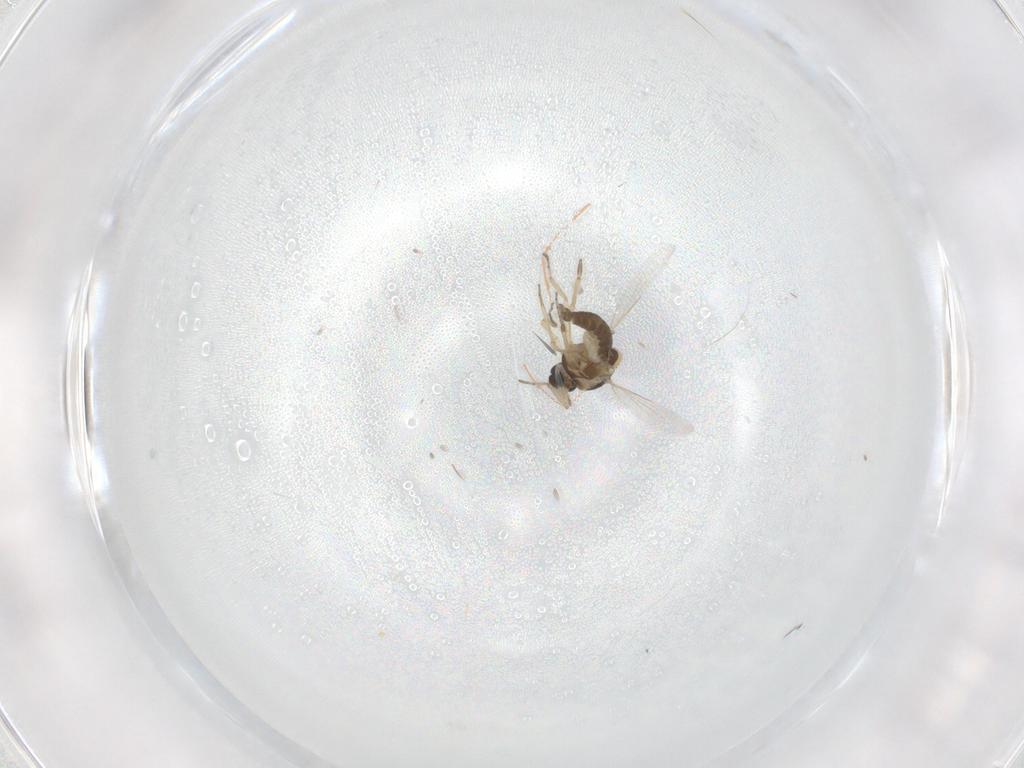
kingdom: Animalia
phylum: Arthropoda
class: Insecta
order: Diptera
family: Ceratopogonidae
